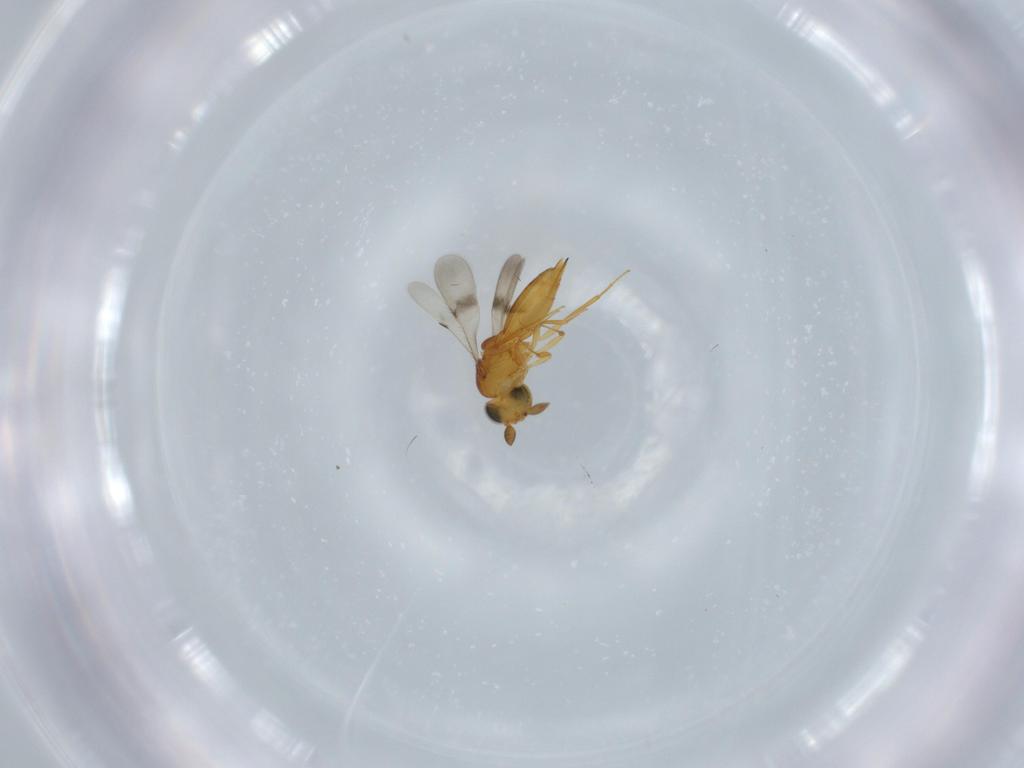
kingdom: Animalia
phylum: Arthropoda
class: Insecta
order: Hymenoptera
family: Scelionidae
